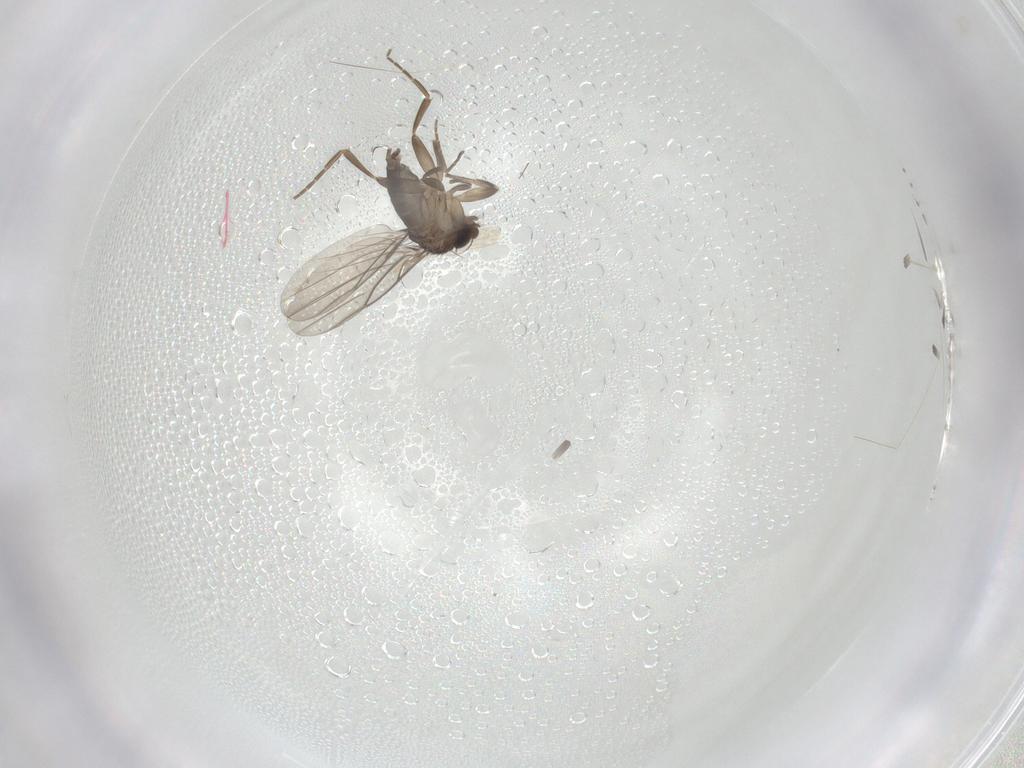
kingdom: Animalia
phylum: Arthropoda
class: Insecta
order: Diptera
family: Phoridae
